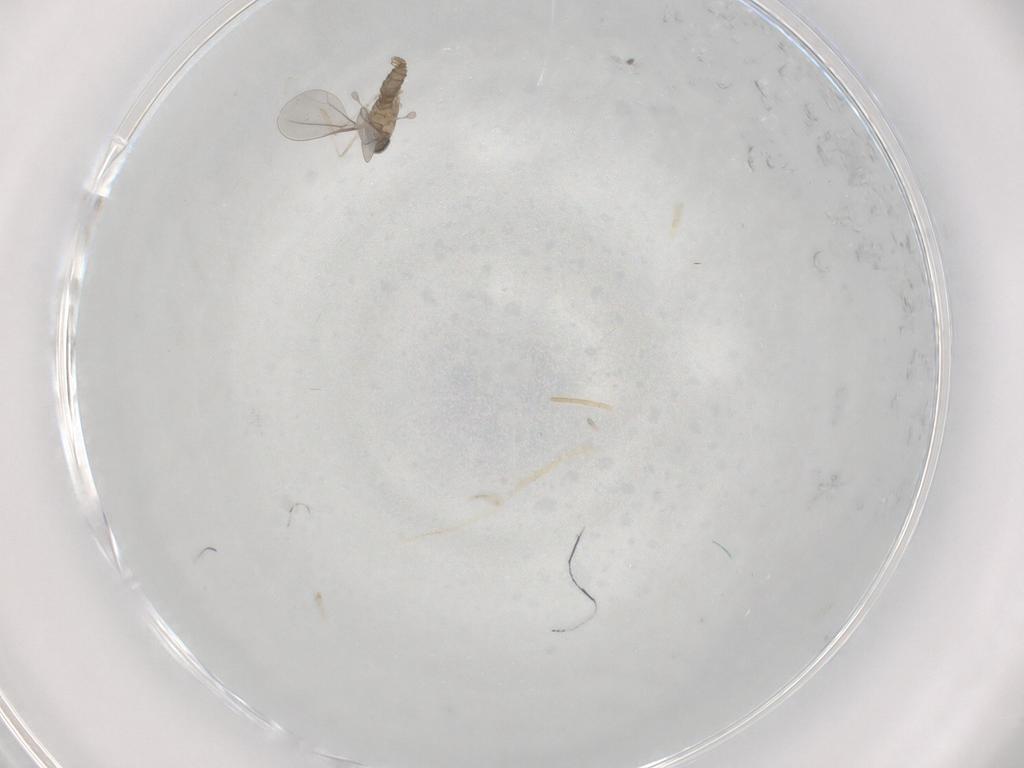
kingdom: Animalia
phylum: Arthropoda
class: Insecta
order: Diptera
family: Cecidomyiidae
